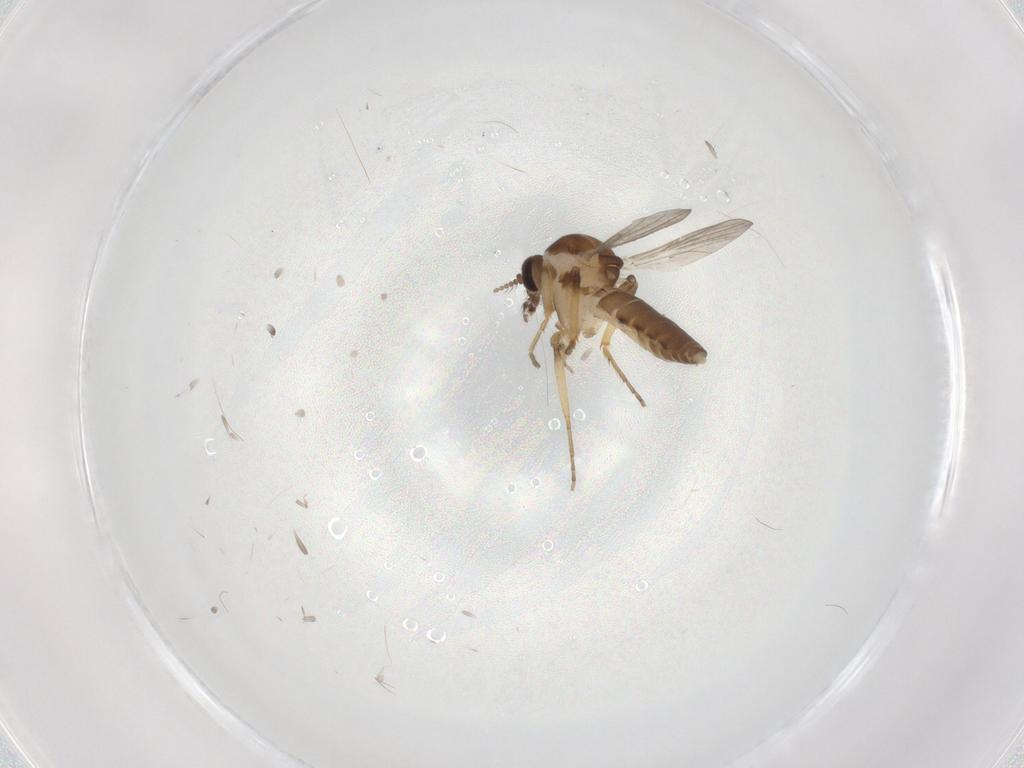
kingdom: Animalia
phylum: Arthropoda
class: Insecta
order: Diptera
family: Ceratopogonidae
